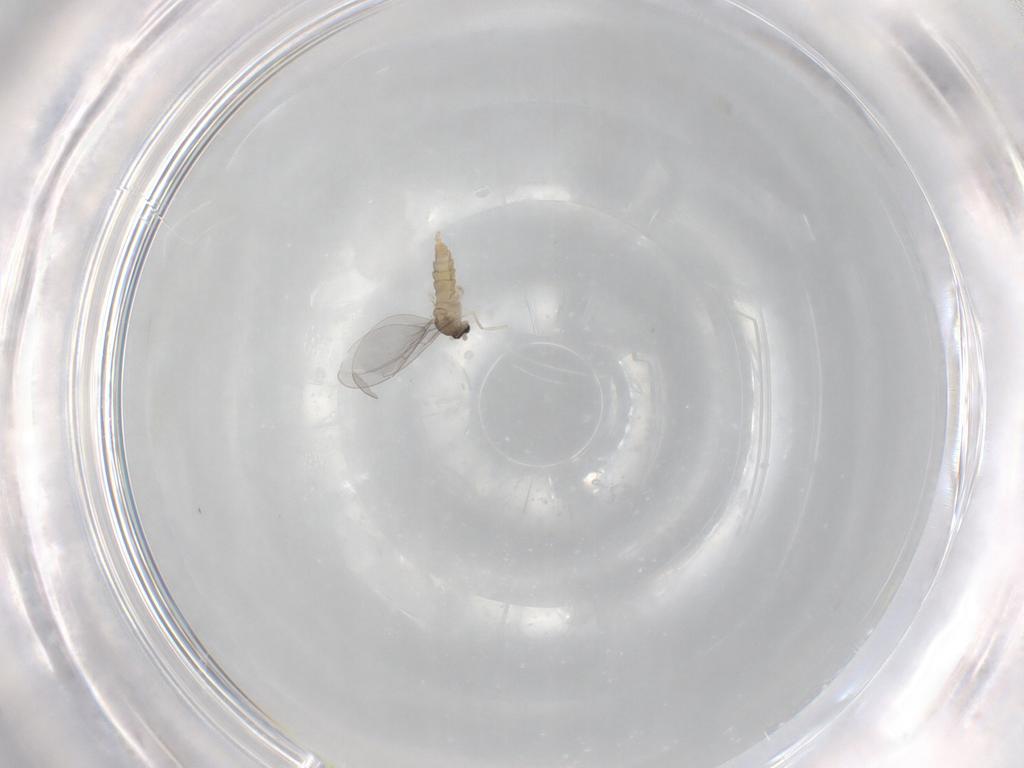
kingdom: Animalia
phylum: Arthropoda
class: Insecta
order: Diptera
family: Cecidomyiidae
